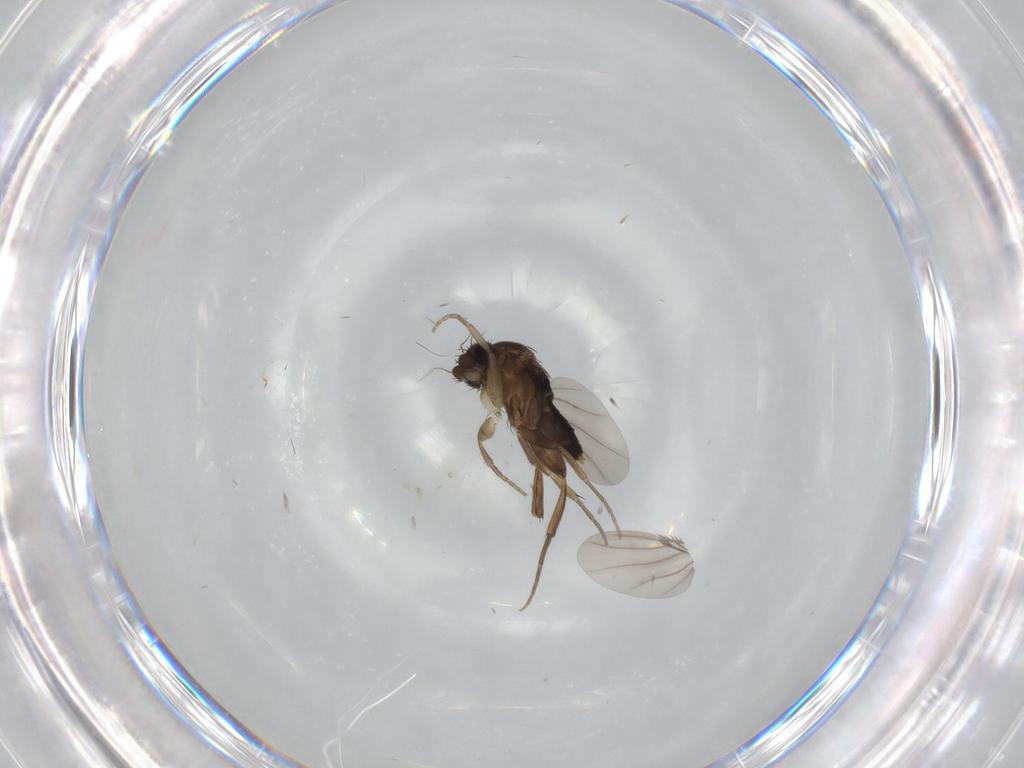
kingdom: Animalia
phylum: Arthropoda
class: Insecta
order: Diptera
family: Phoridae
